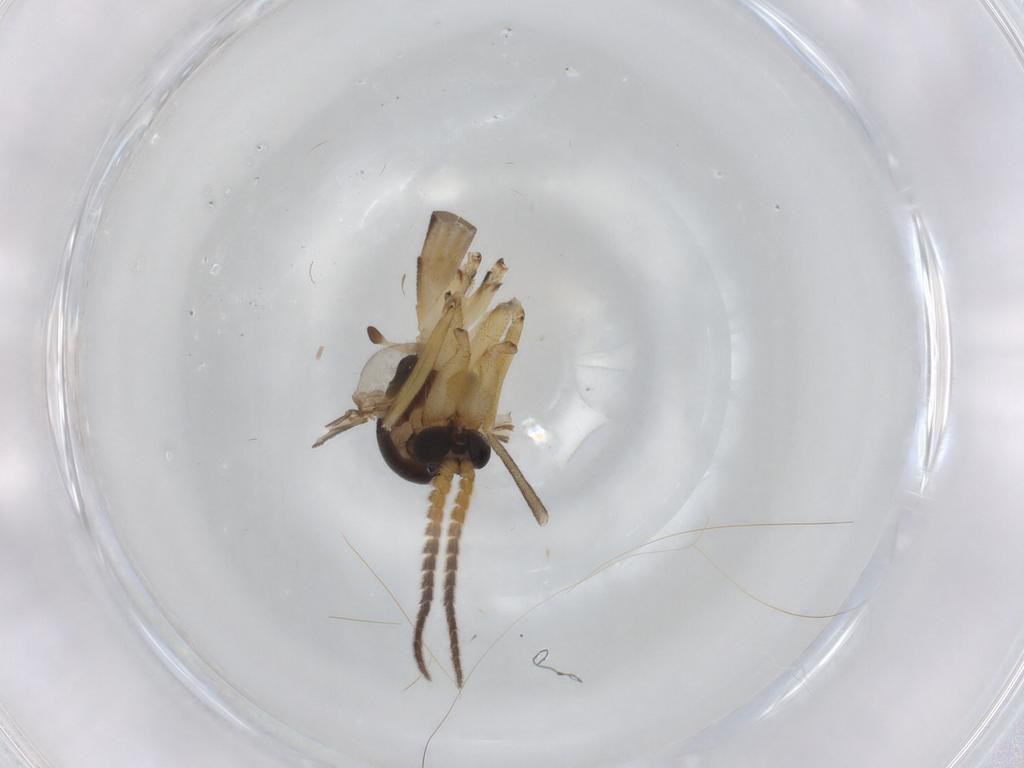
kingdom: Animalia
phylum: Arthropoda
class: Insecta
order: Diptera
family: Mycetophilidae
